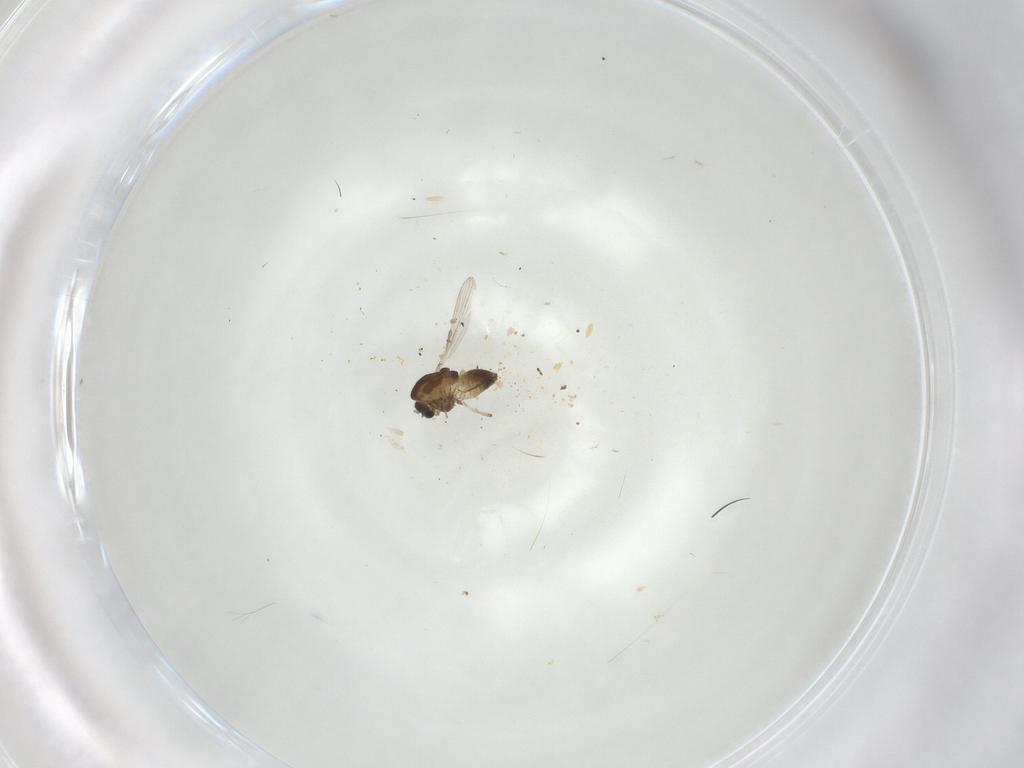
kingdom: Animalia
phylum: Arthropoda
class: Insecta
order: Diptera
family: Chironomidae
